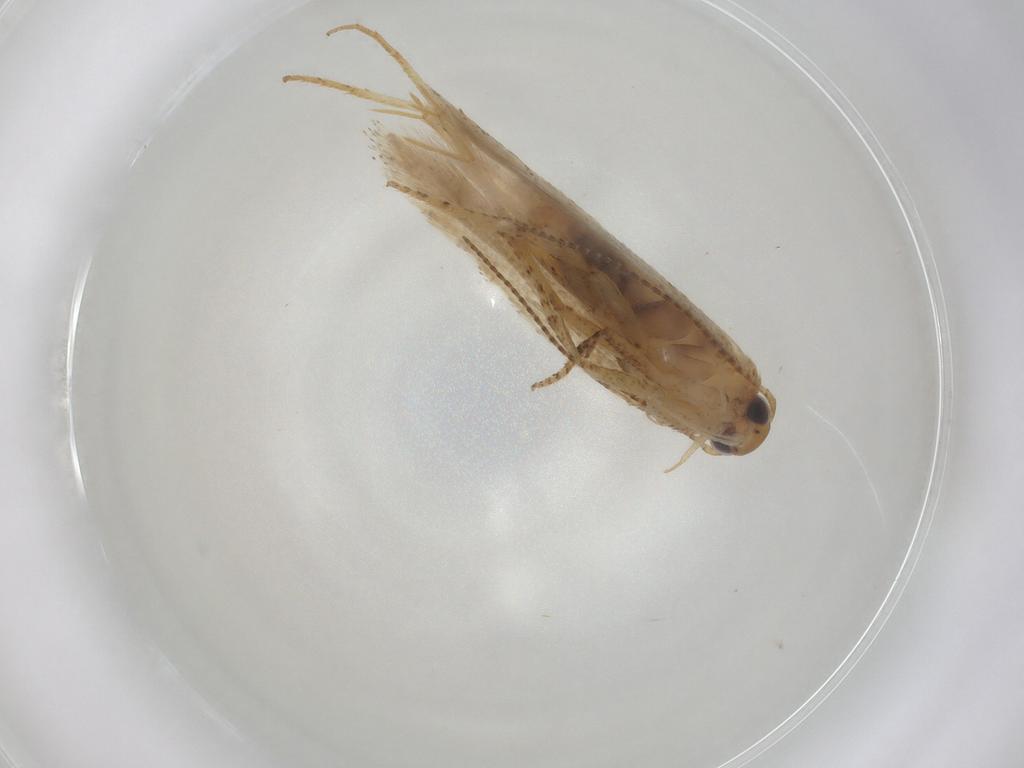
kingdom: Animalia
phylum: Arthropoda
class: Insecta
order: Lepidoptera
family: Gelechiidae
